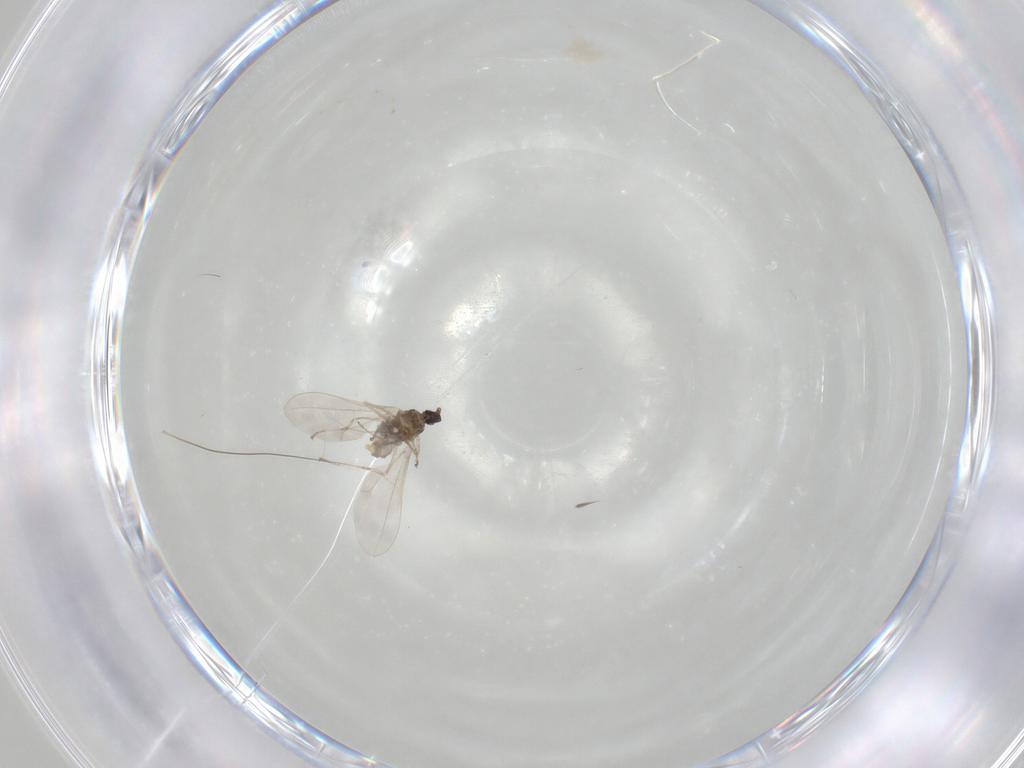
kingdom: Animalia
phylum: Arthropoda
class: Insecta
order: Diptera
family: Cecidomyiidae
